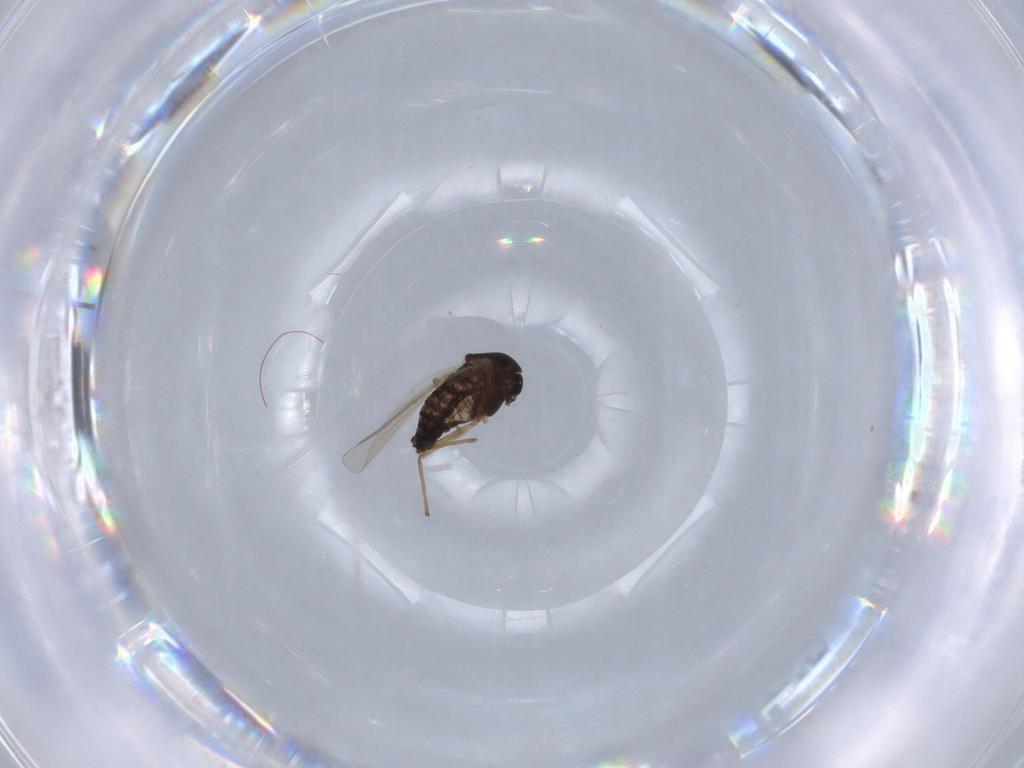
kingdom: Animalia
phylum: Arthropoda
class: Insecta
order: Diptera
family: Chironomidae
